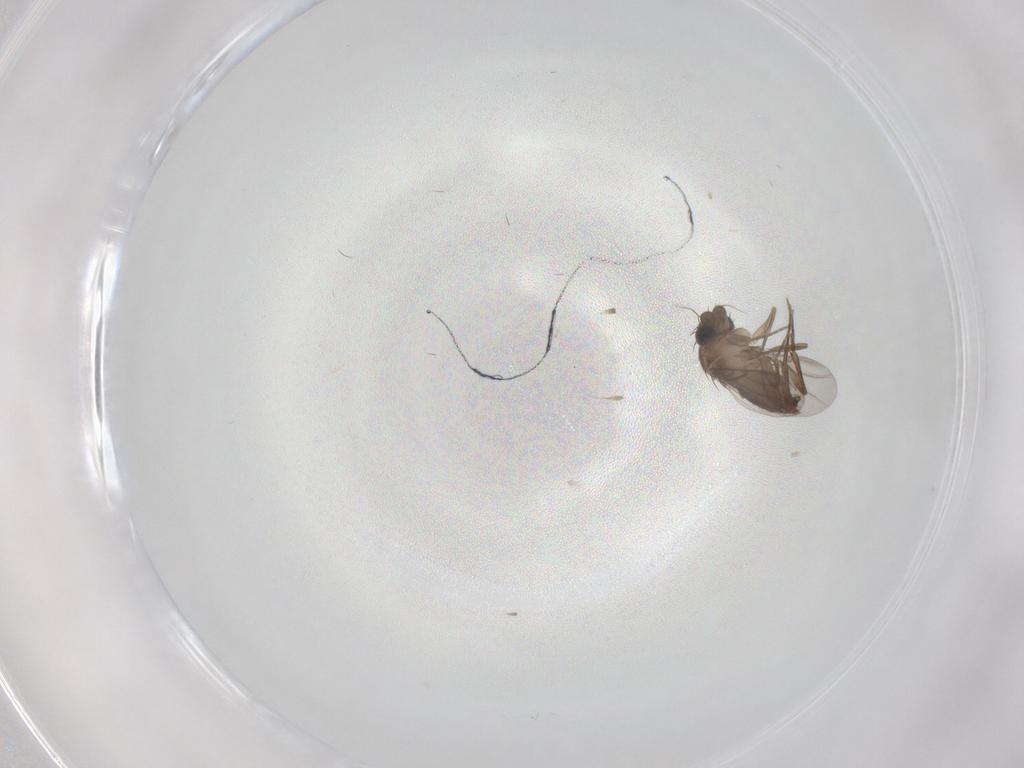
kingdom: Animalia
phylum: Arthropoda
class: Insecta
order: Diptera
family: Phoridae
